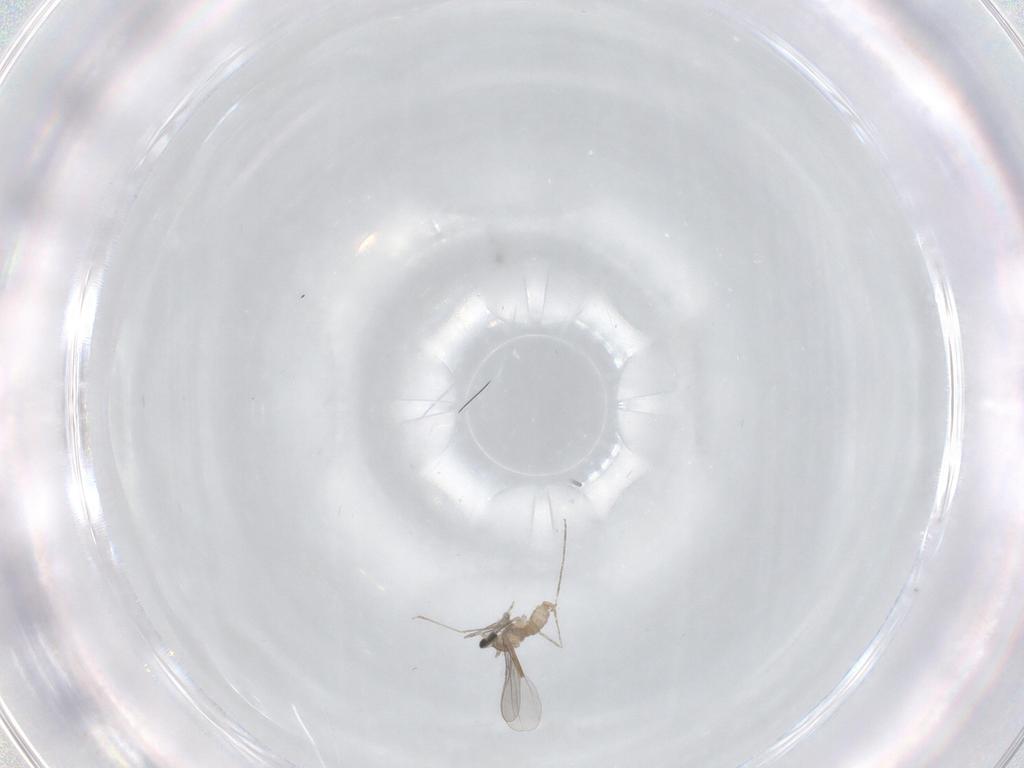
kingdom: Animalia
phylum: Arthropoda
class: Insecta
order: Diptera
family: Cecidomyiidae
